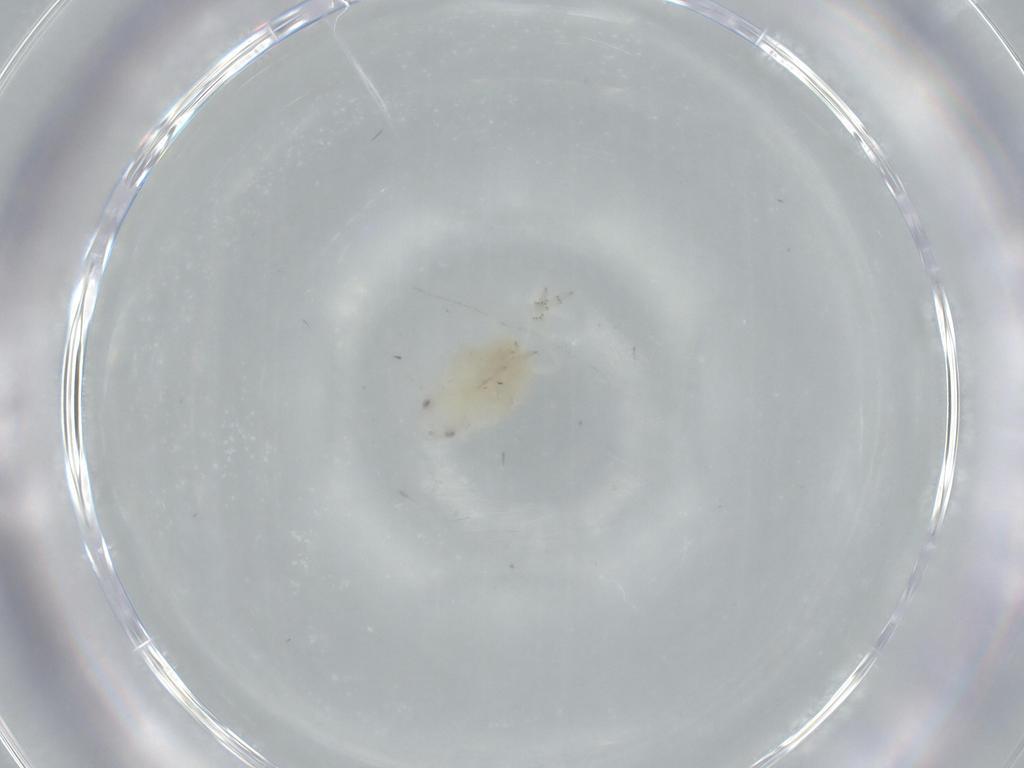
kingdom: Animalia
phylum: Arthropoda
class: Insecta
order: Hemiptera
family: Flatidae
